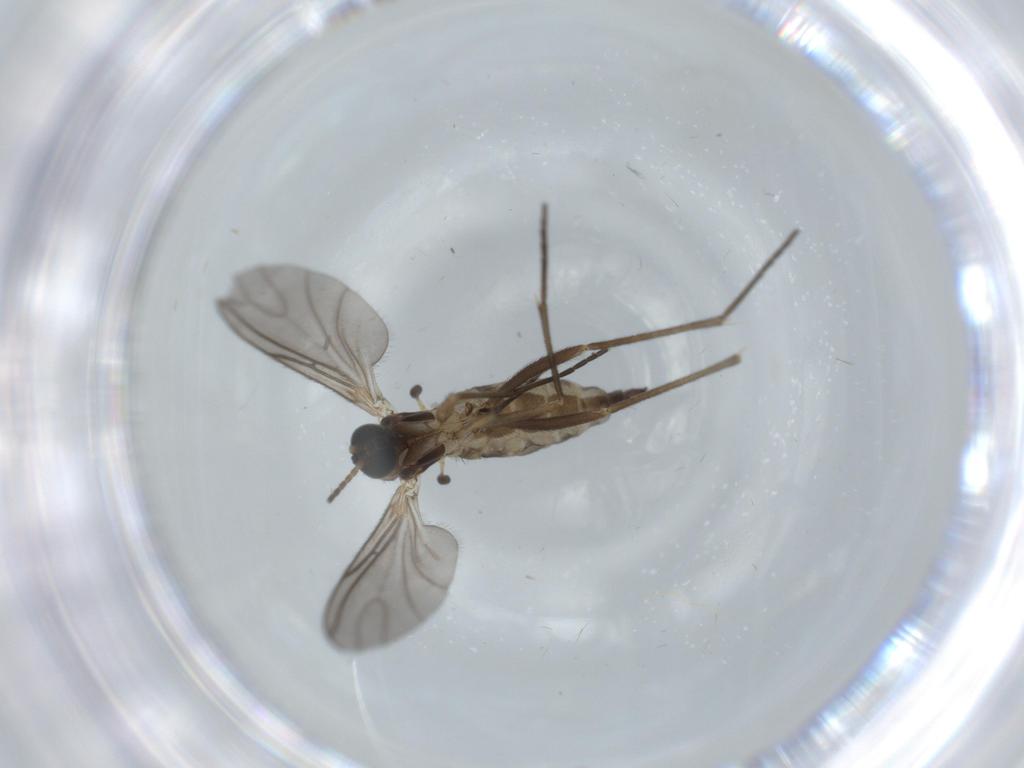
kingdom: Animalia
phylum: Arthropoda
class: Insecta
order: Diptera
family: Sciaridae
